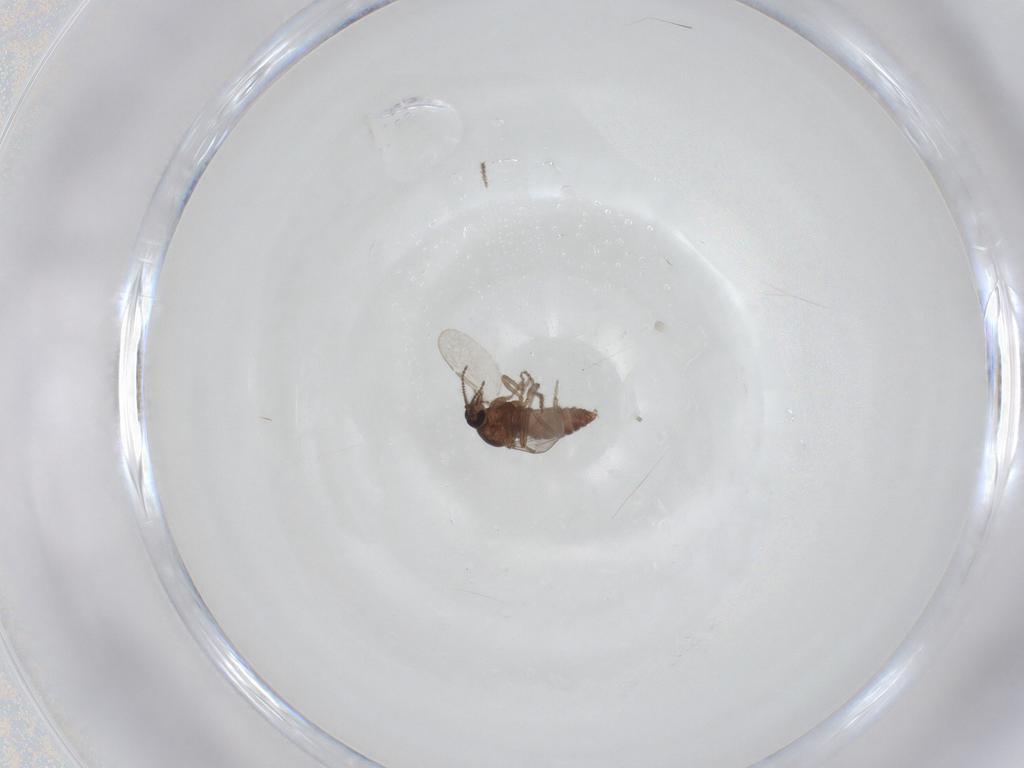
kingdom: Animalia
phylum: Arthropoda
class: Insecta
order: Diptera
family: Ceratopogonidae
